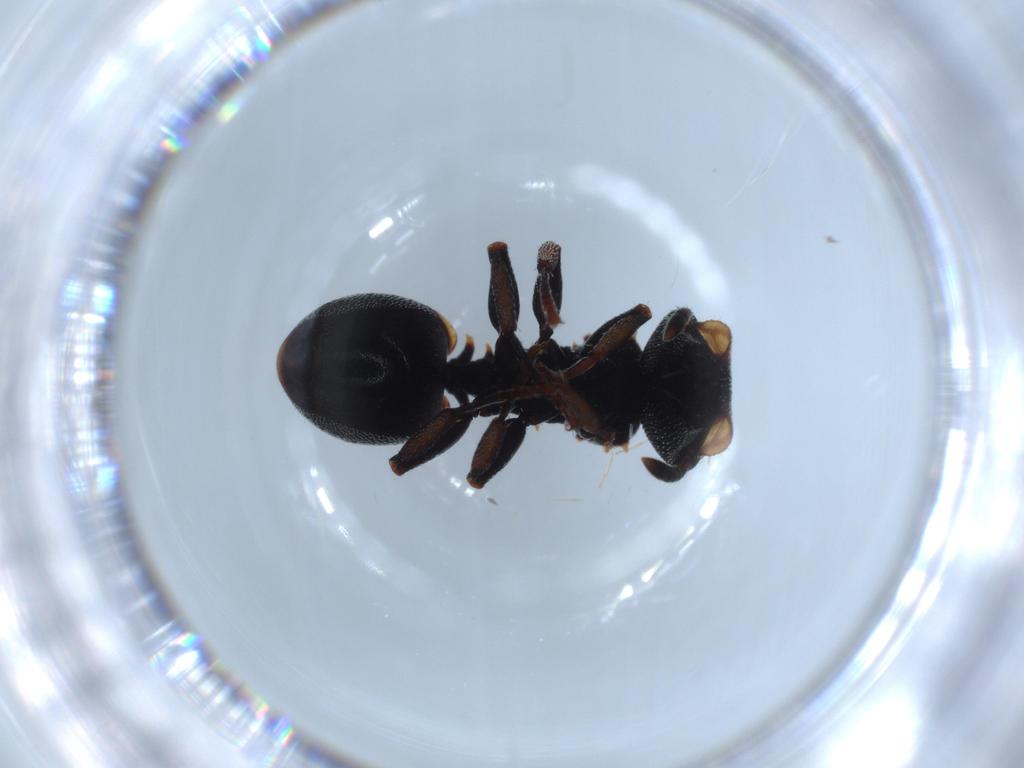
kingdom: Animalia
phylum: Arthropoda
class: Insecta
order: Hymenoptera
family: Formicidae
